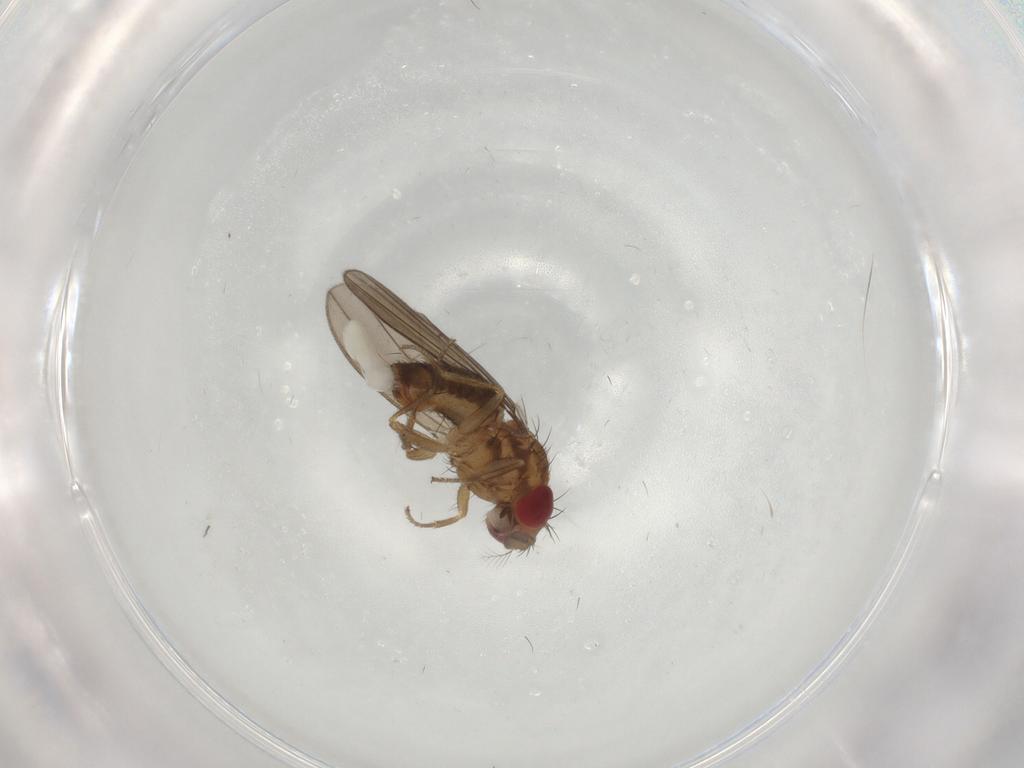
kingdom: Animalia
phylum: Arthropoda
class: Insecta
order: Diptera
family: Drosophilidae
